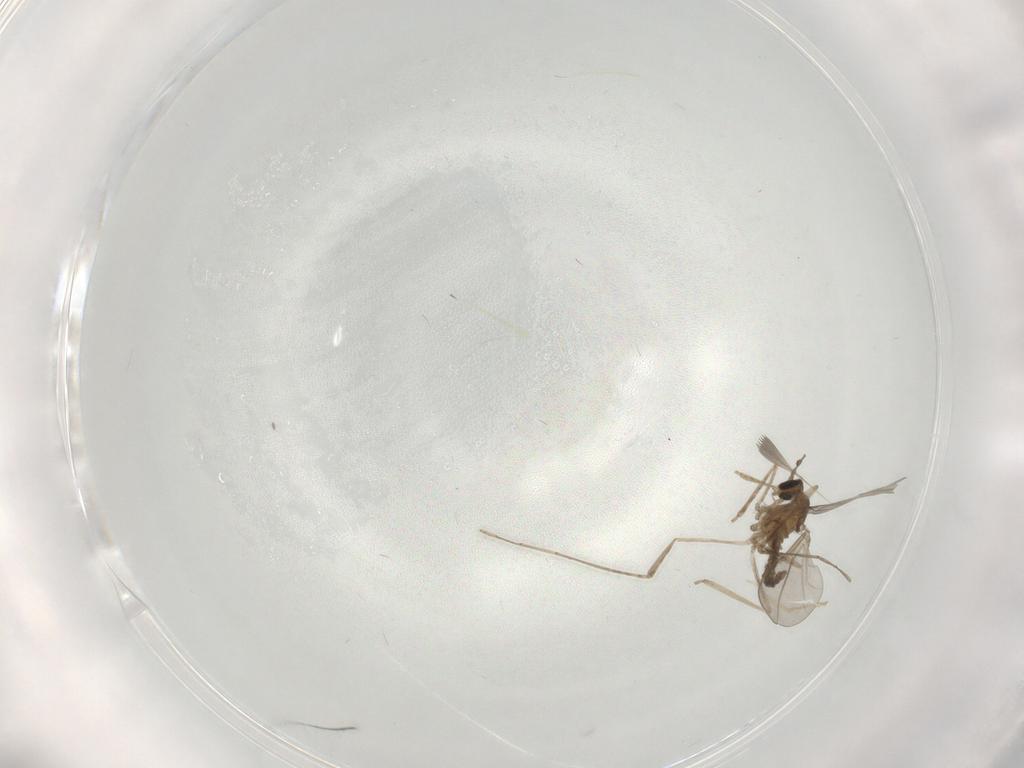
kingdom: Animalia
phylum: Arthropoda
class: Insecta
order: Diptera
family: Cecidomyiidae
